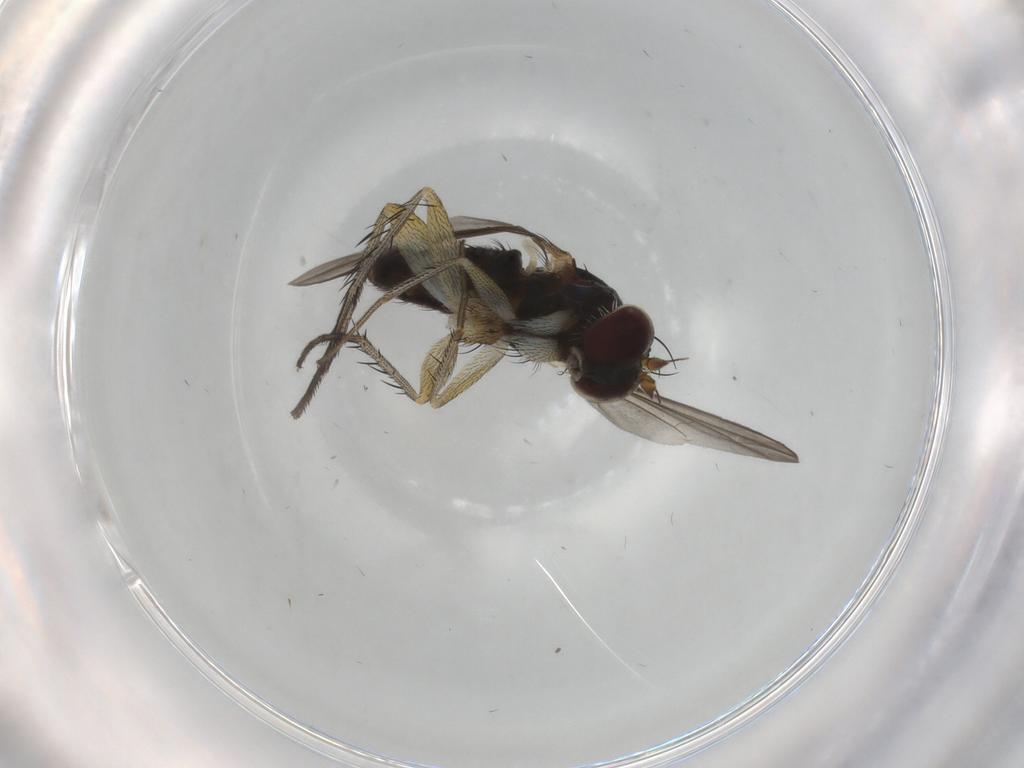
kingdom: Animalia
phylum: Arthropoda
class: Insecta
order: Diptera
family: Dolichopodidae
